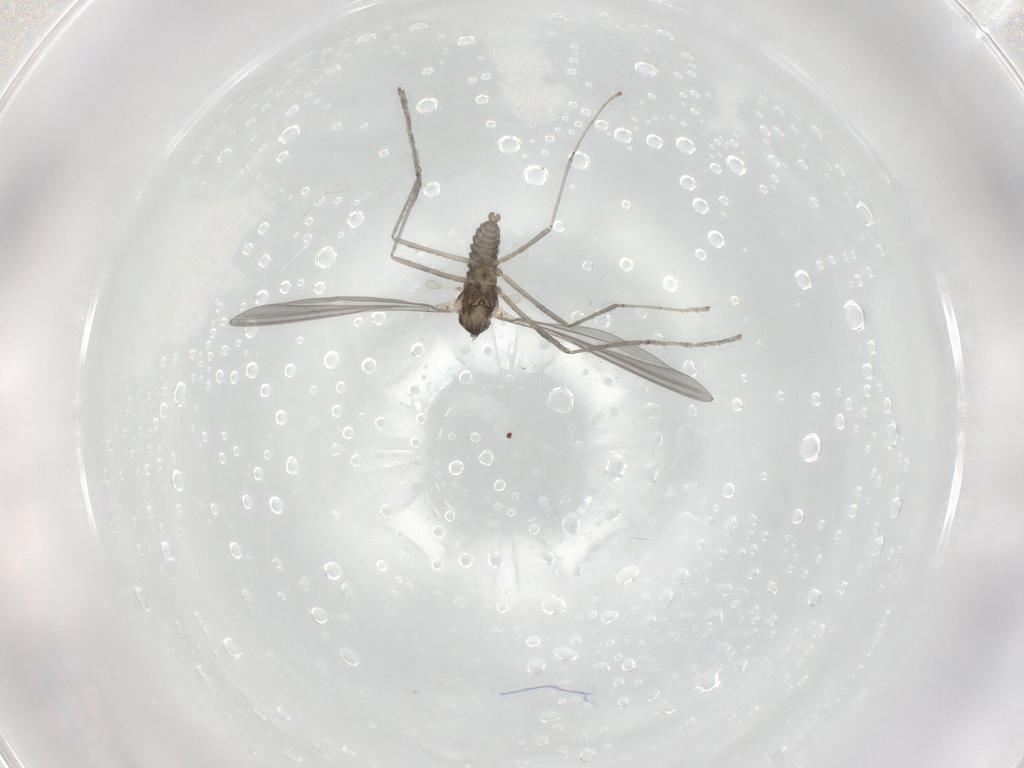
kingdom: Animalia
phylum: Arthropoda
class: Insecta
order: Diptera
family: Cecidomyiidae
